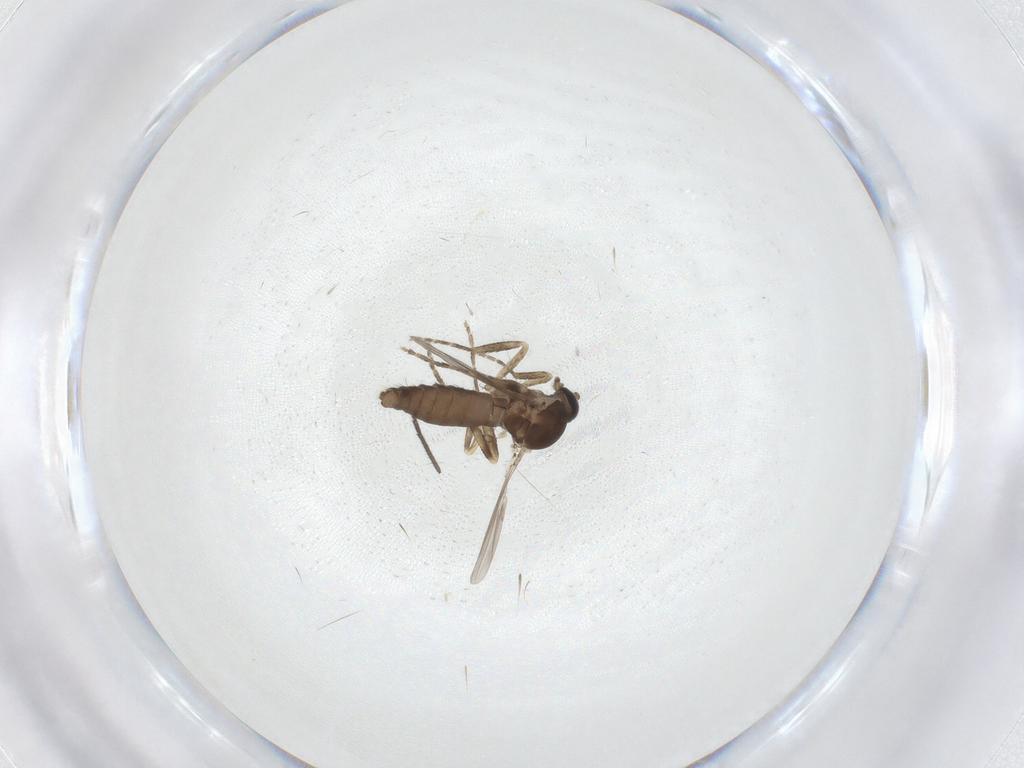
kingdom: Animalia
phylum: Arthropoda
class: Insecta
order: Diptera
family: Ceratopogonidae
